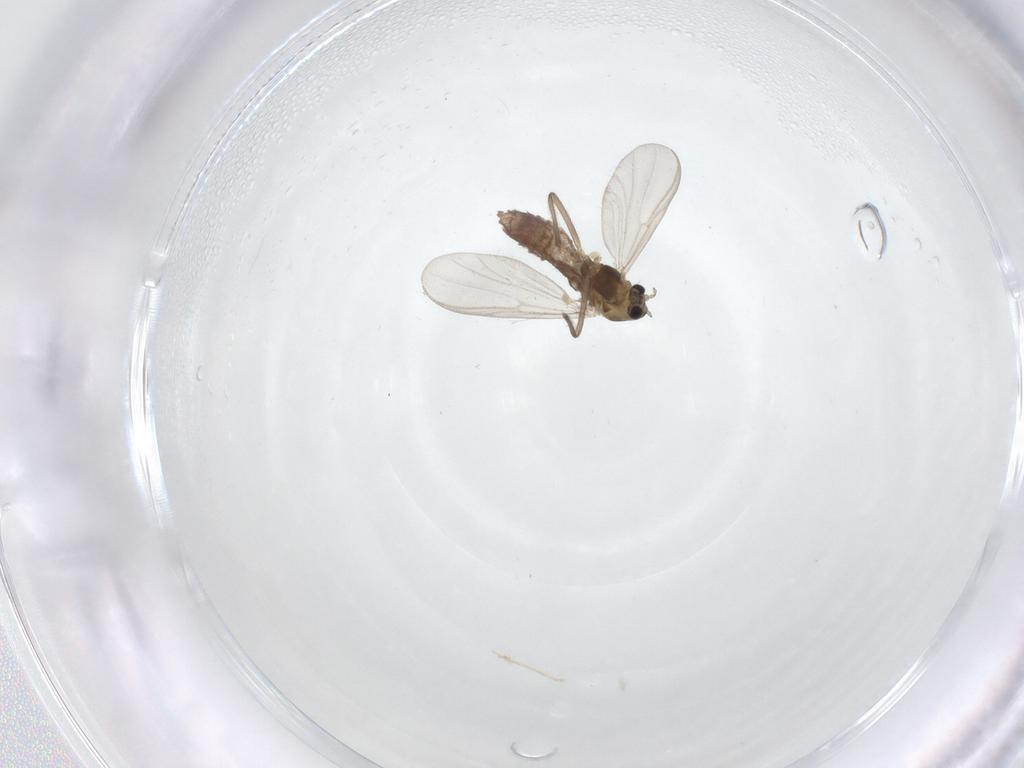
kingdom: Animalia
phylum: Arthropoda
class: Insecta
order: Diptera
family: Chironomidae
